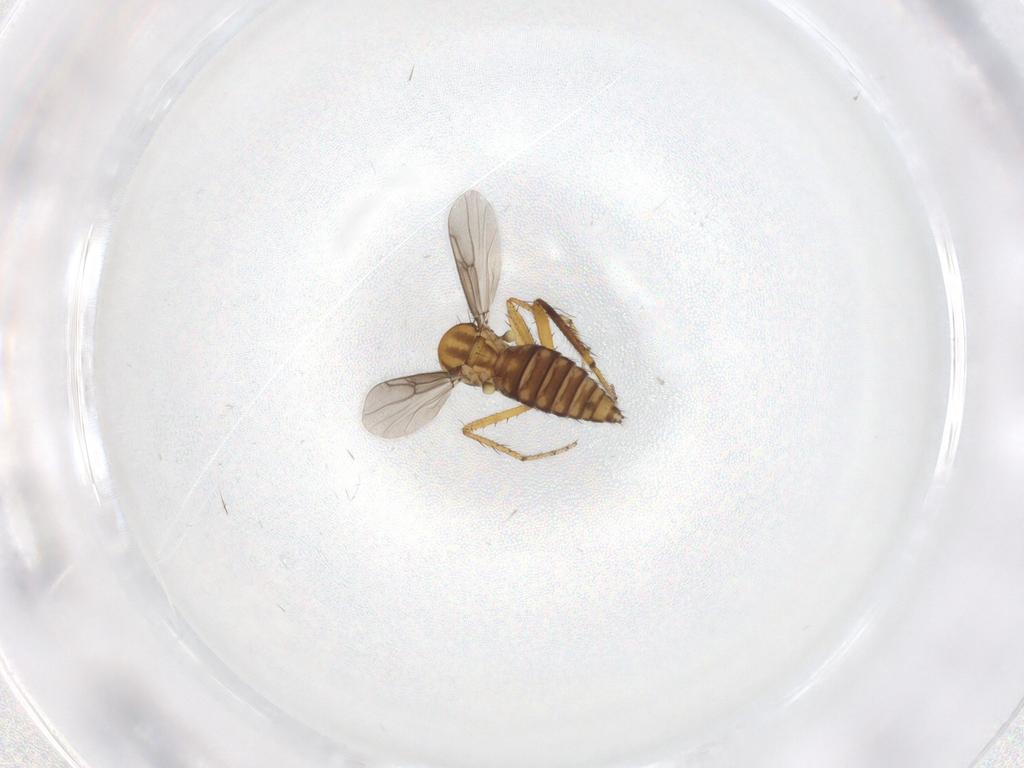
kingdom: Animalia
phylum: Arthropoda
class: Insecta
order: Diptera
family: Ceratopogonidae
